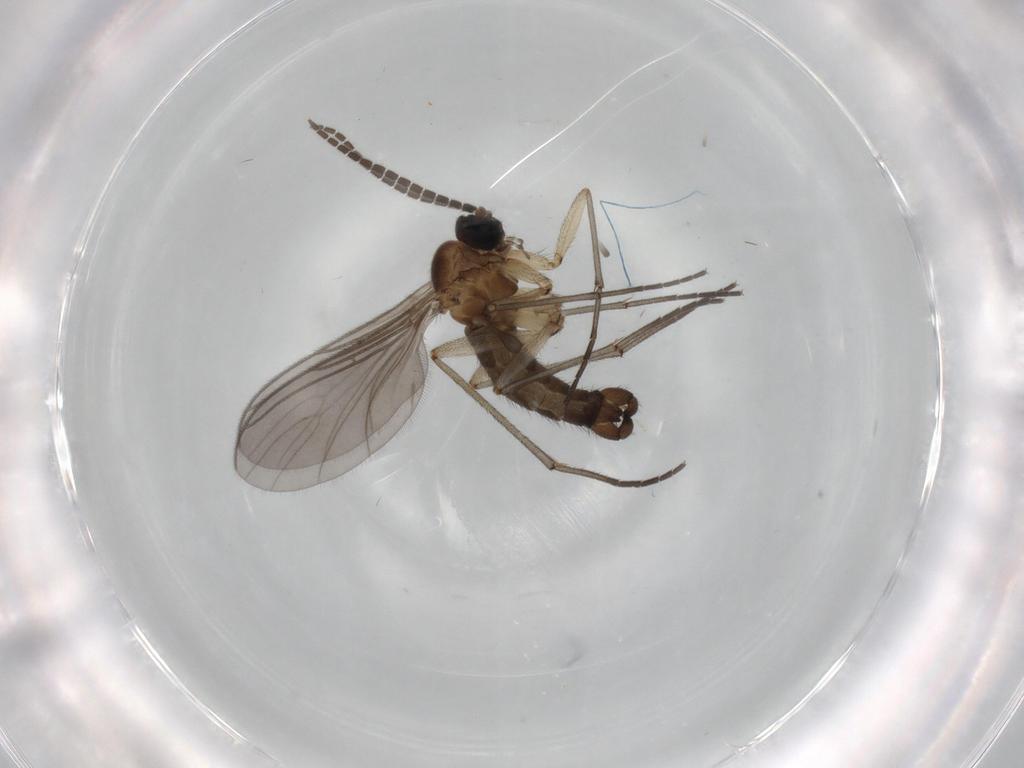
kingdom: Animalia
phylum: Arthropoda
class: Insecta
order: Diptera
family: Sciaridae
